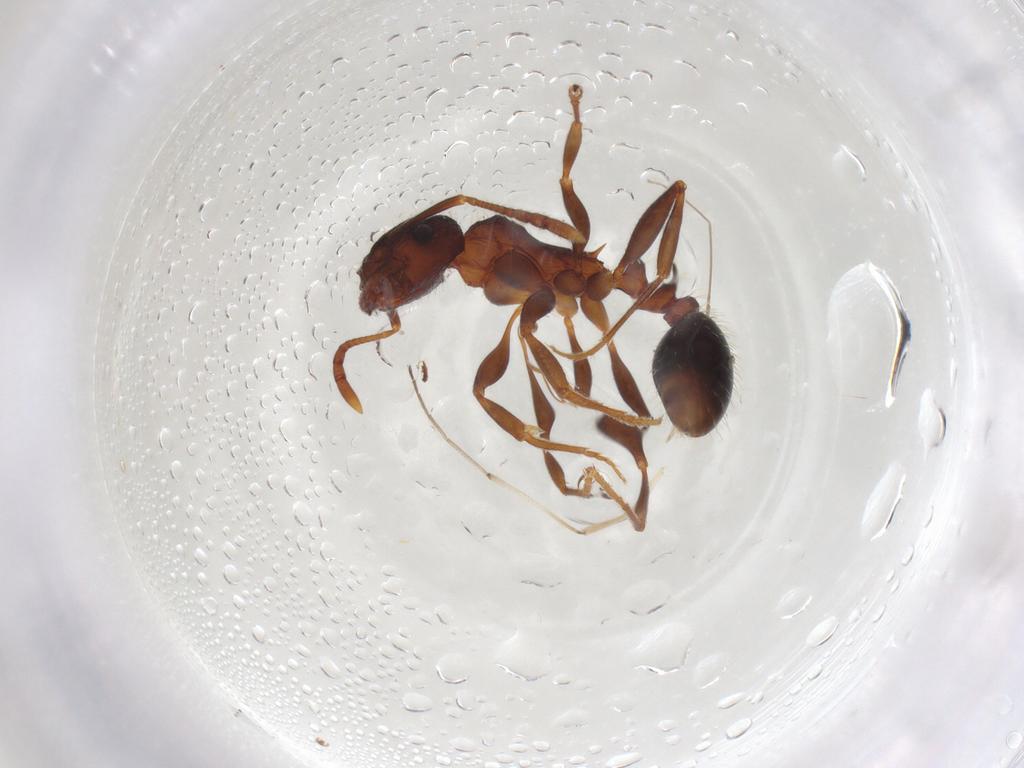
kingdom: Animalia
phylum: Arthropoda
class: Insecta
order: Hymenoptera
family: Formicidae
